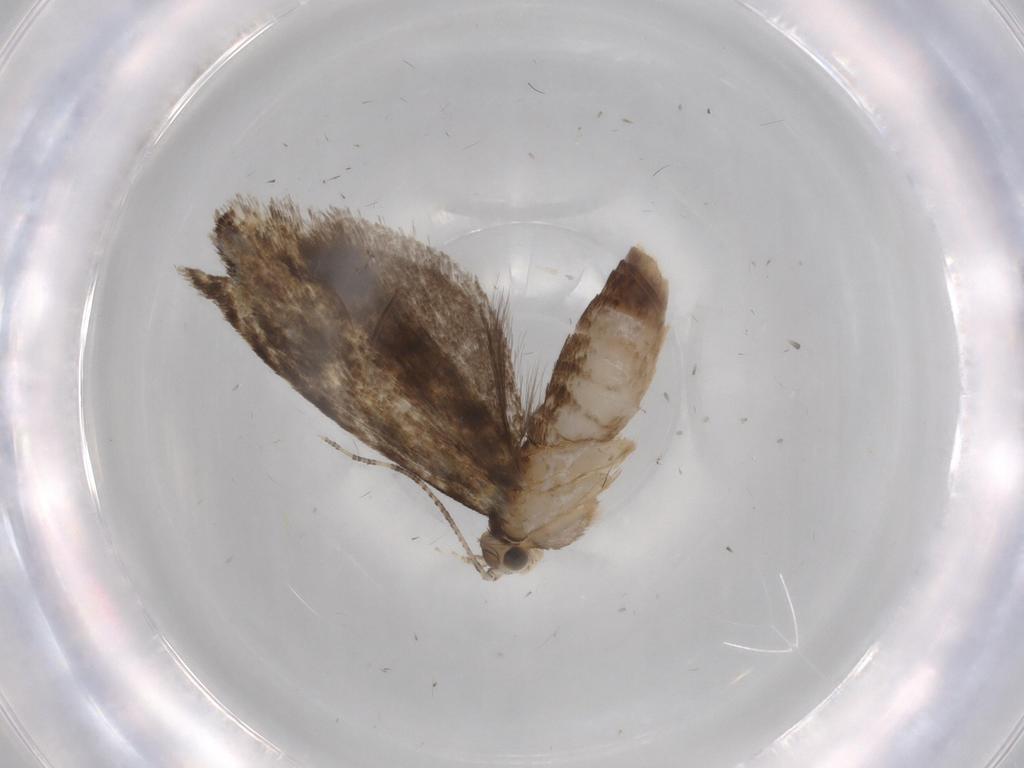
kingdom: Animalia
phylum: Arthropoda
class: Insecta
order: Lepidoptera
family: Tineidae
